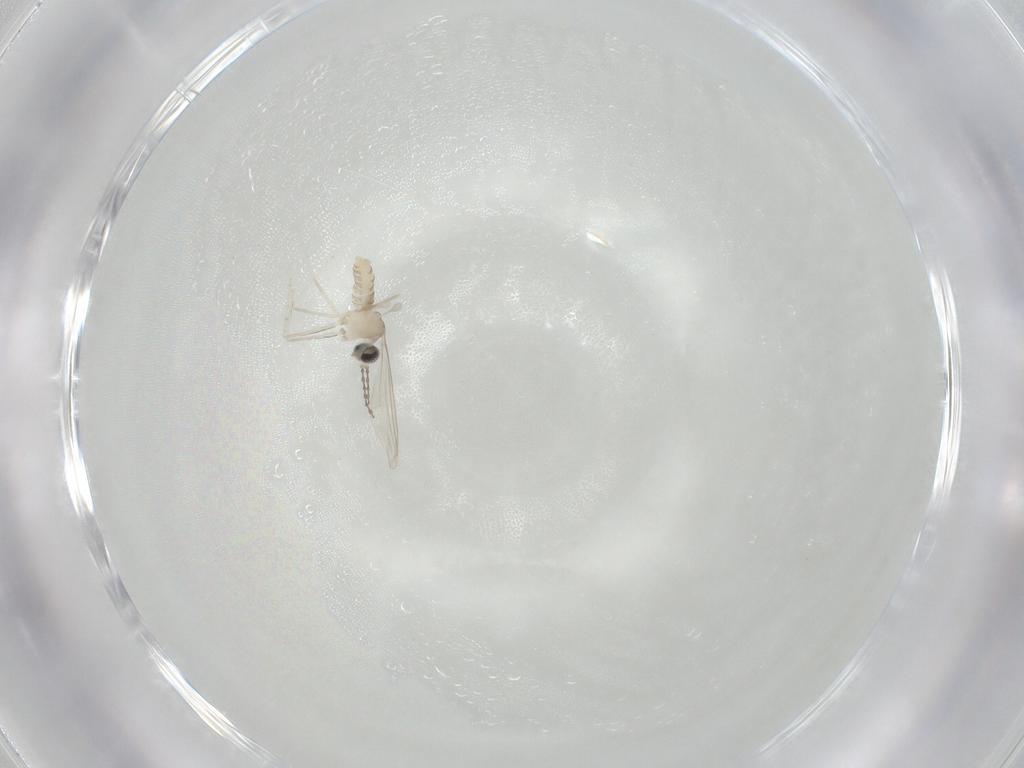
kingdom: Animalia
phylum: Arthropoda
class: Insecta
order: Diptera
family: Cecidomyiidae
